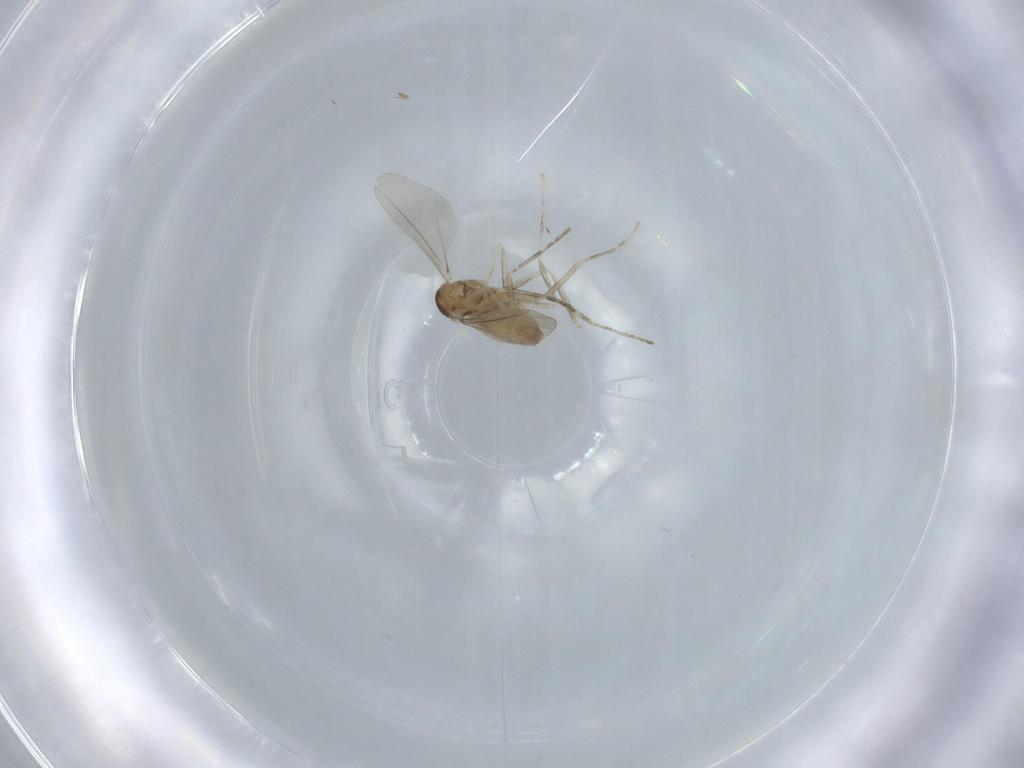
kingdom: Animalia
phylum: Arthropoda
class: Insecta
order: Diptera
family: Cecidomyiidae
